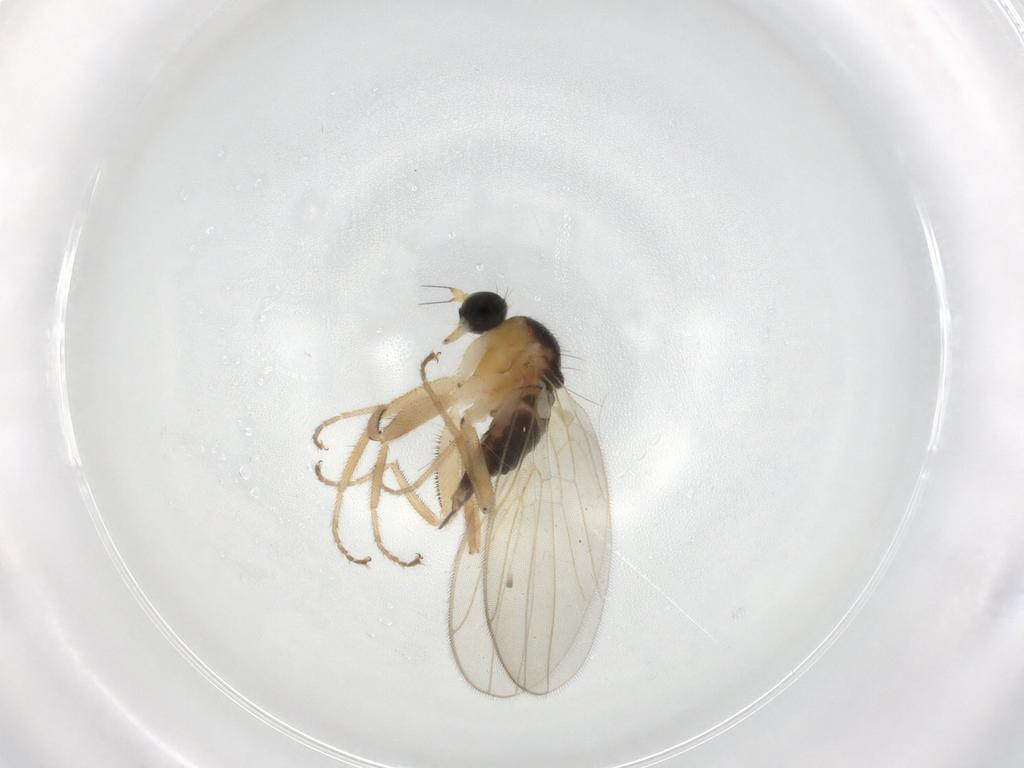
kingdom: Animalia
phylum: Arthropoda
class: Insecta
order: Diptera
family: Hybotidae
